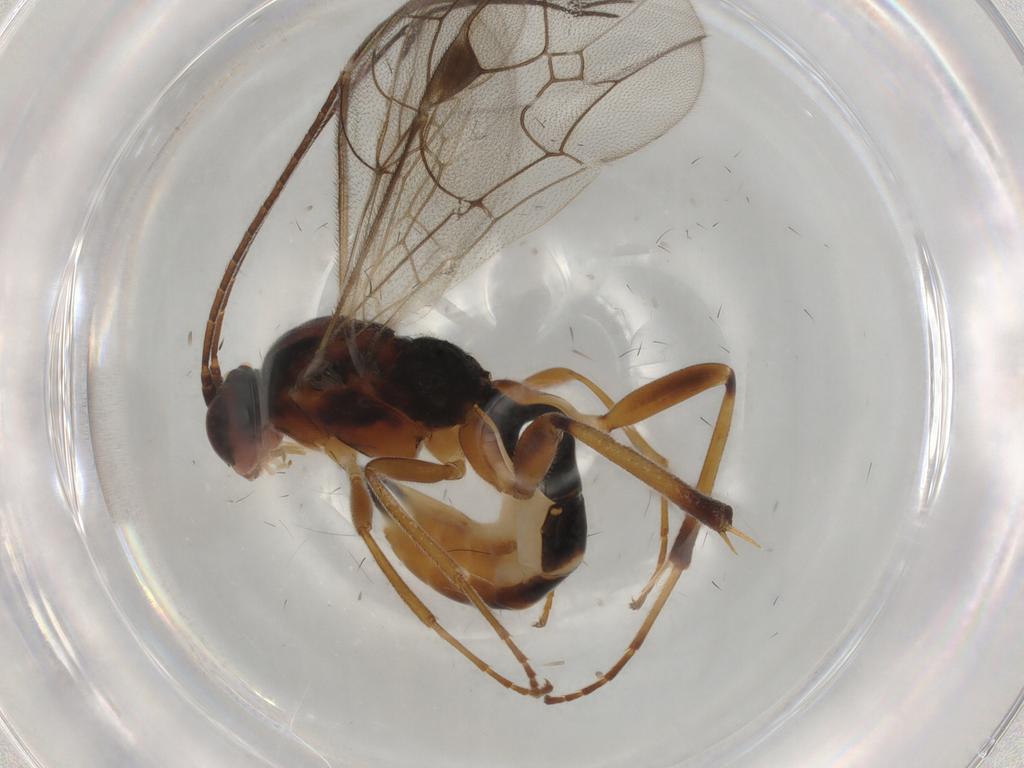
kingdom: Animalia
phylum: Arthropoda
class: Insecta
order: Hymenoptera
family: Ichneumonidae
